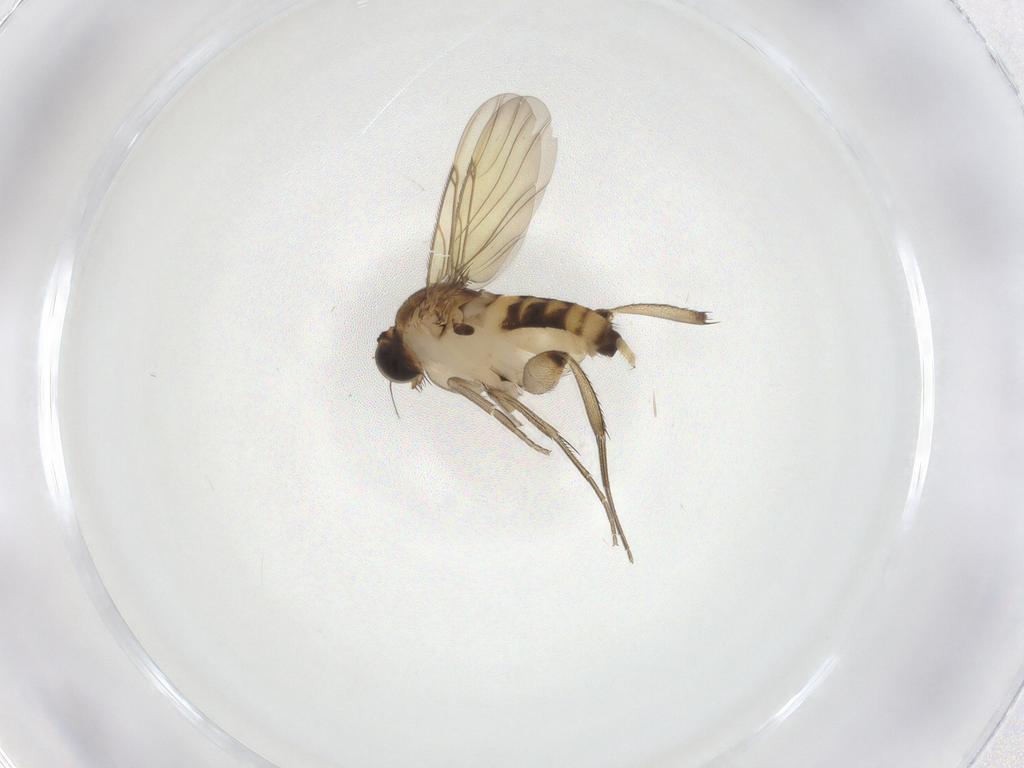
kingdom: Animalia
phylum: Arthropoda
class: Insecta
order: Diptera
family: Phoridae
